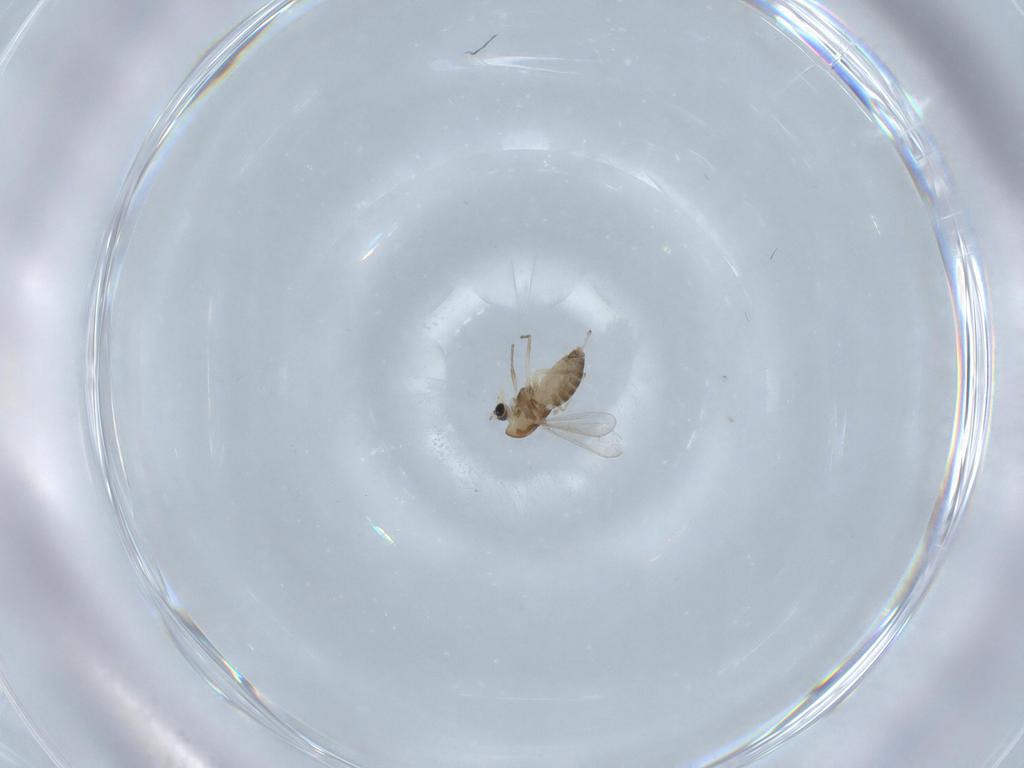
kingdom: Animalia
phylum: Arthropoda
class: Insecta
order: Diptera
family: Chironomidae
